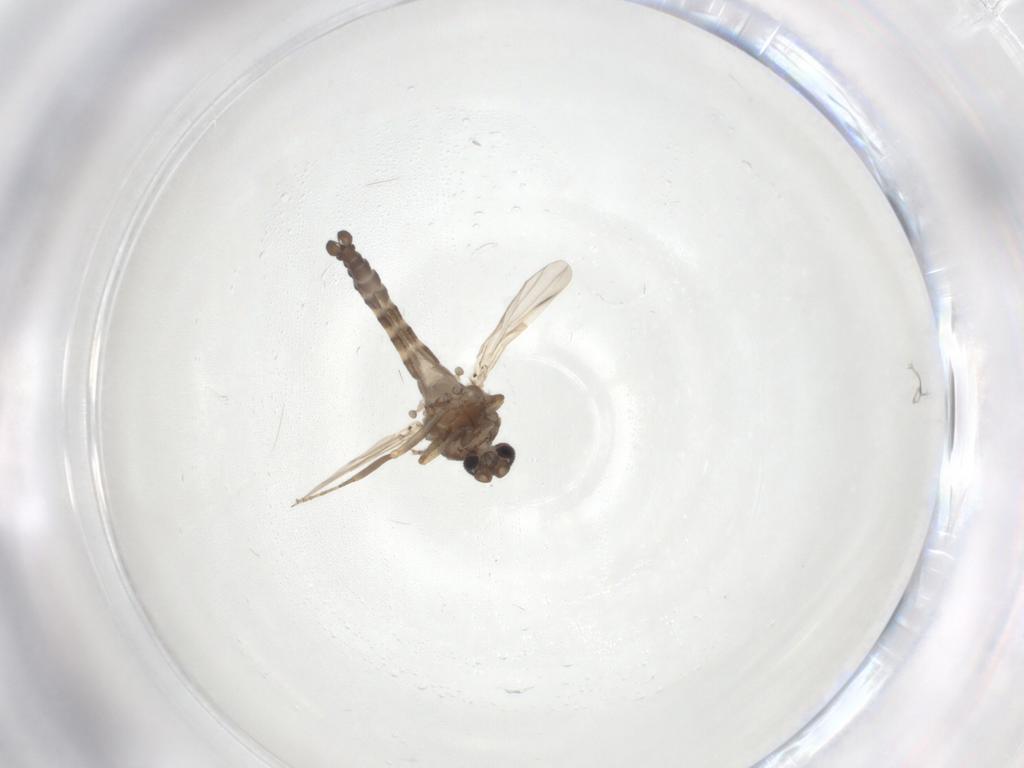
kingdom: Animalia
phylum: Arthropoda
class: Insecta
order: Diptera
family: Ceratopogonidae
